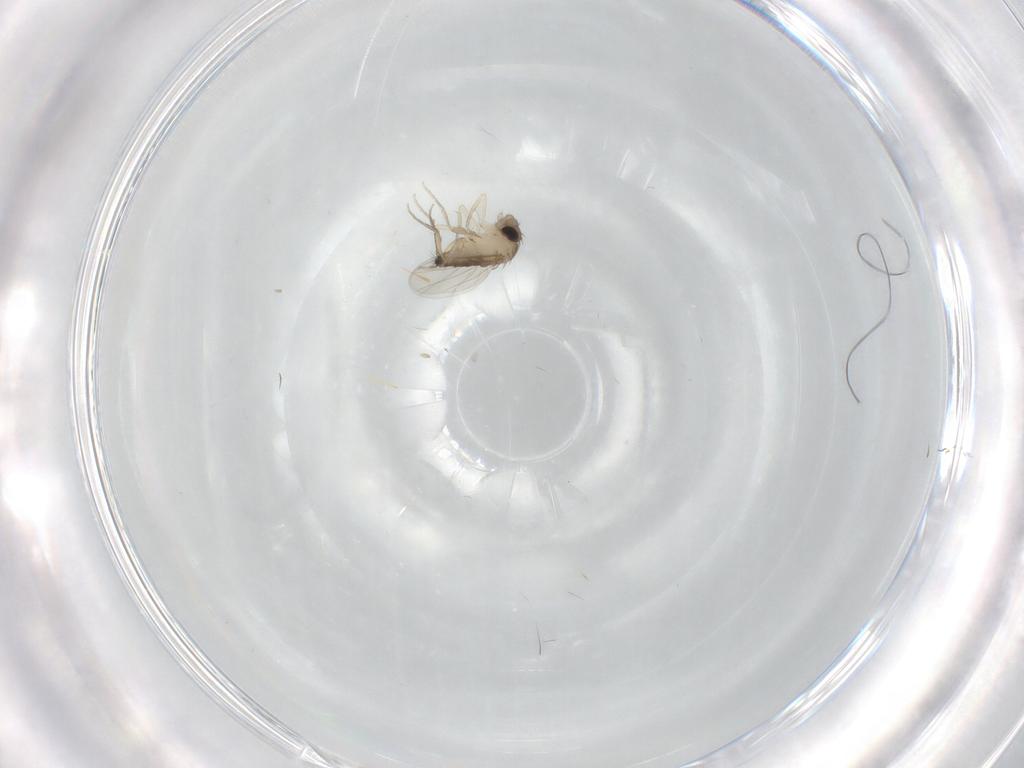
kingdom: Animalia
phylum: Arthropoda
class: Insecta
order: Diptera
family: Phoridae
